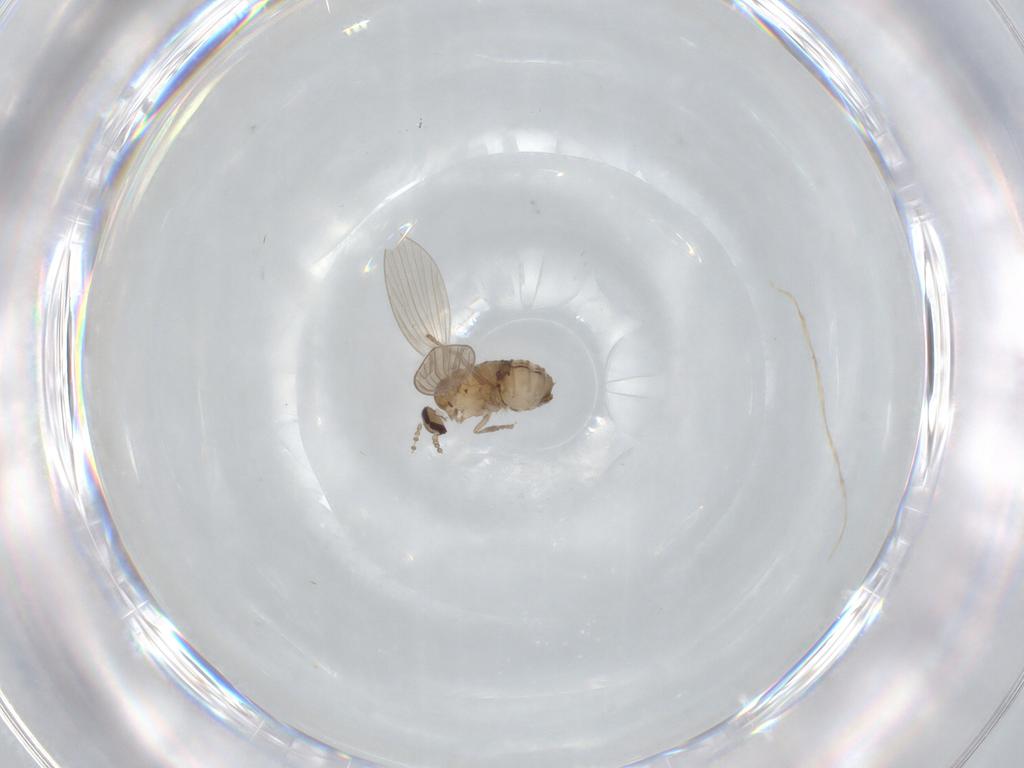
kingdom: Animalia
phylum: Arthropoda
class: Insecta
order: Diptera
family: Psychodidae
